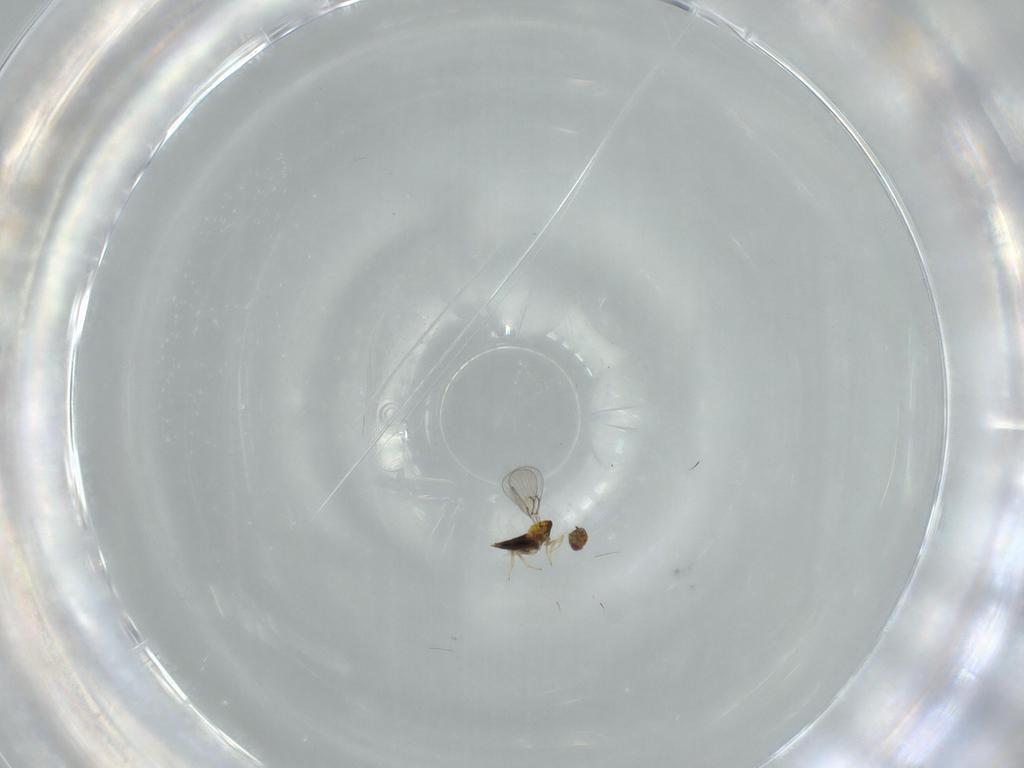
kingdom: Animalia
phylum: Arthropoda
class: Insecta
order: Hymenoptera
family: Trichogrammatidae
